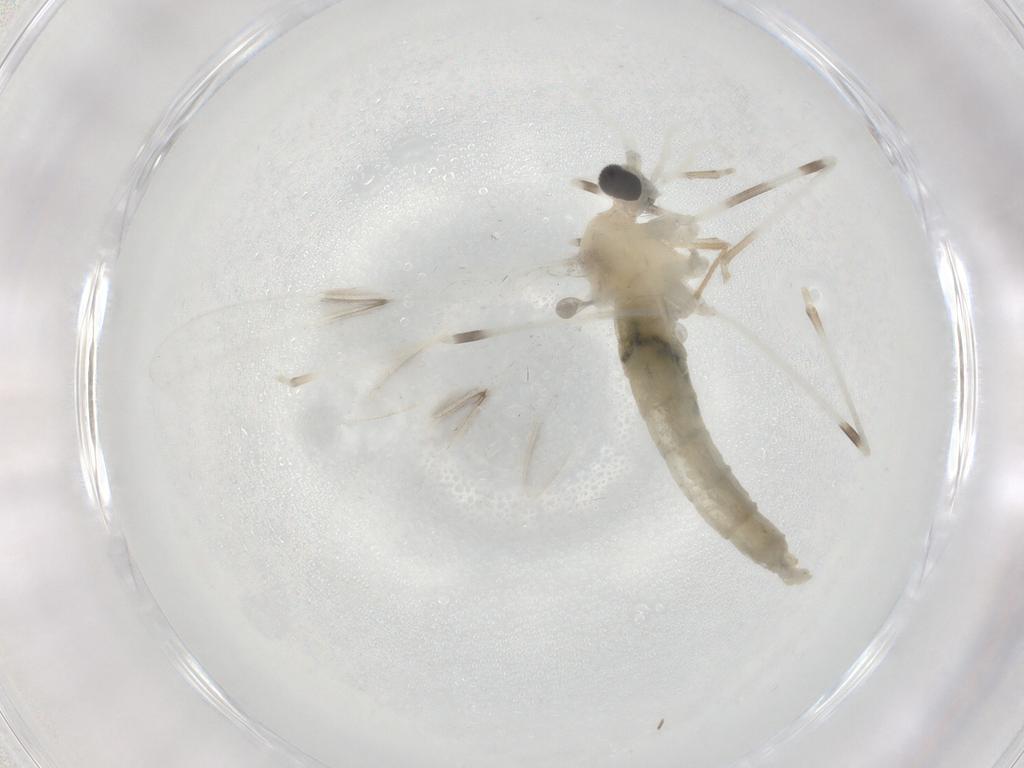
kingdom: Animalia
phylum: Arthropoda
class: Insecta
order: Diptera
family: Cecidomyiidae
